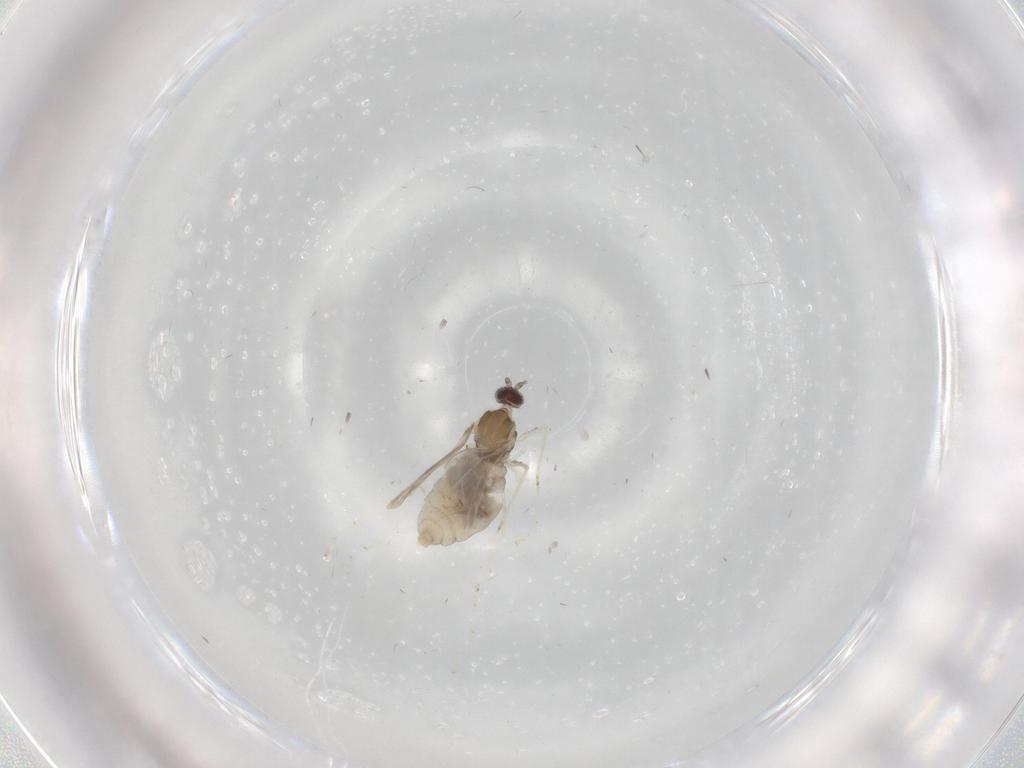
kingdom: Animalia
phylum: Arthropoda
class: Insecta
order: Diptera
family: Cecidomyiidae
